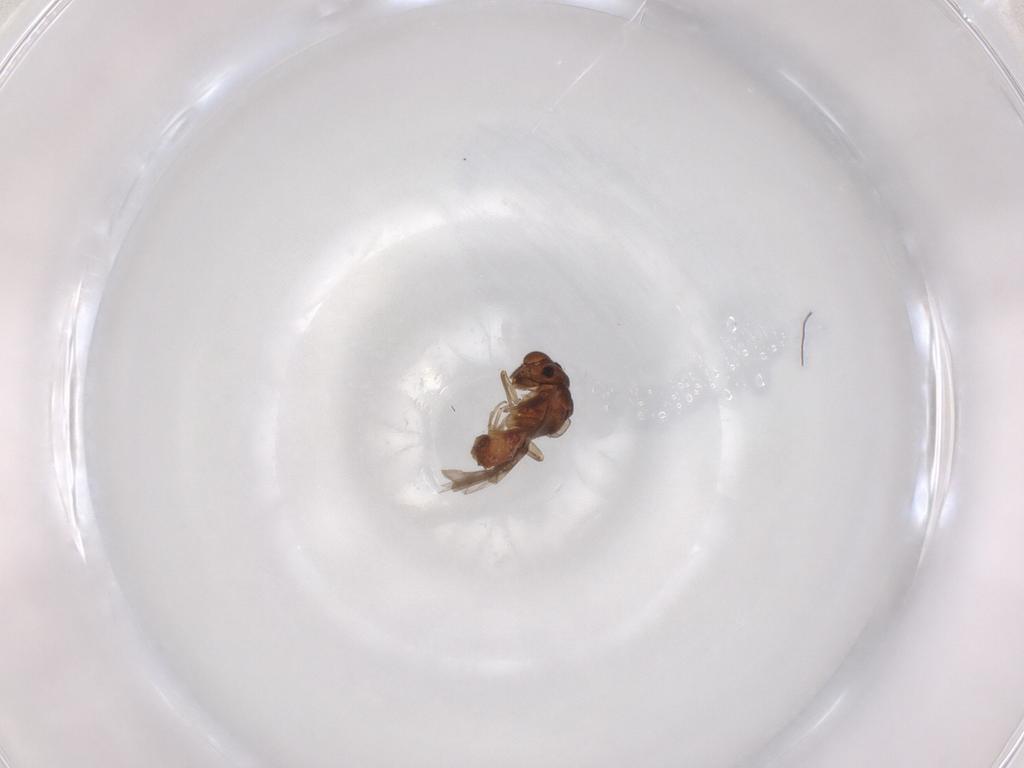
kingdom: Animalia
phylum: Arthropoda
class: Insecta
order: Psocodea
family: Caeciliusidae
